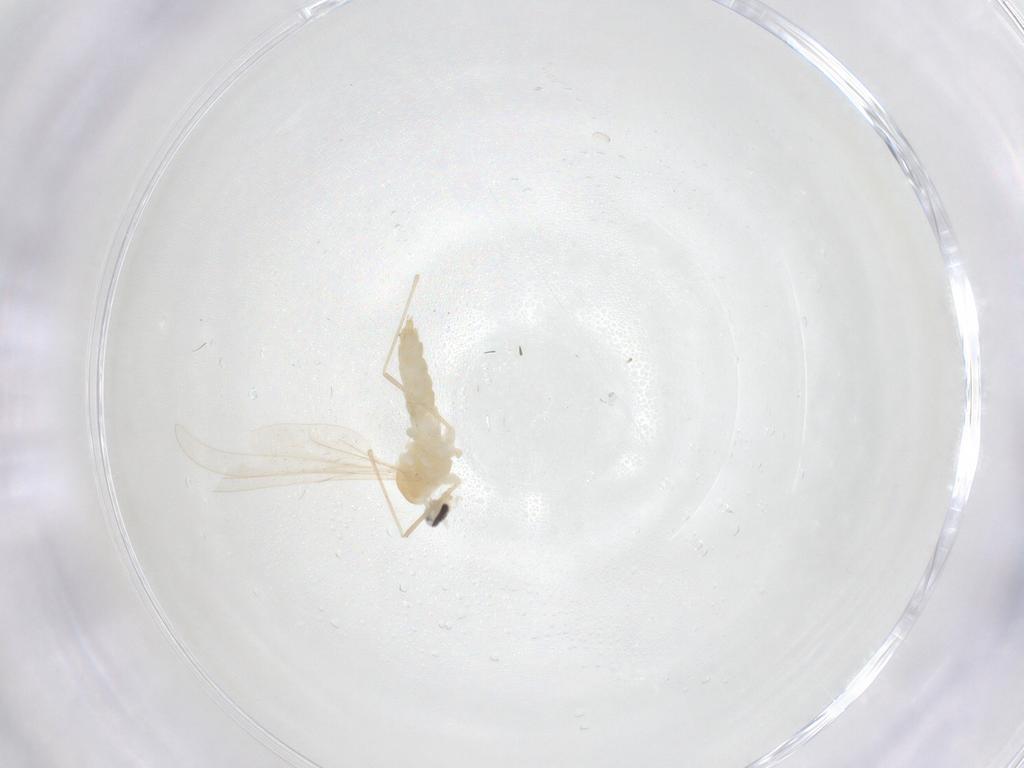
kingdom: Animalia
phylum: Arthropoda
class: Insecta
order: Diptera
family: Cecidomyiidae
